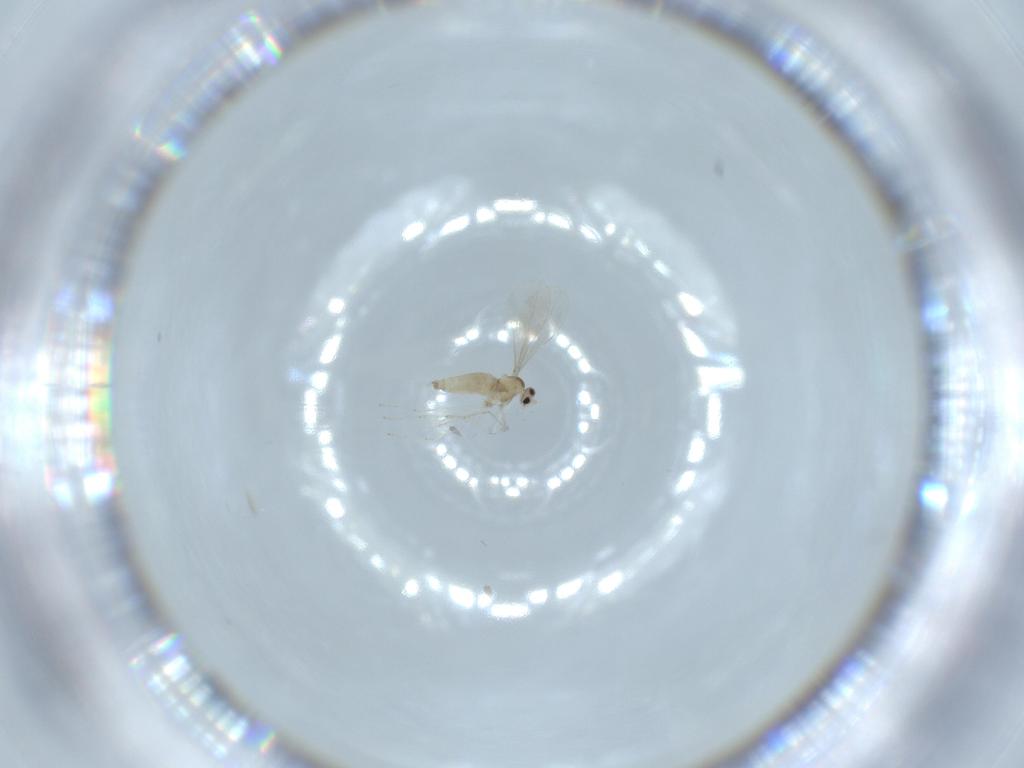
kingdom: Animalia
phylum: Arthropoda
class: Insecta
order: Diptera
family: Cecidomyiidae
